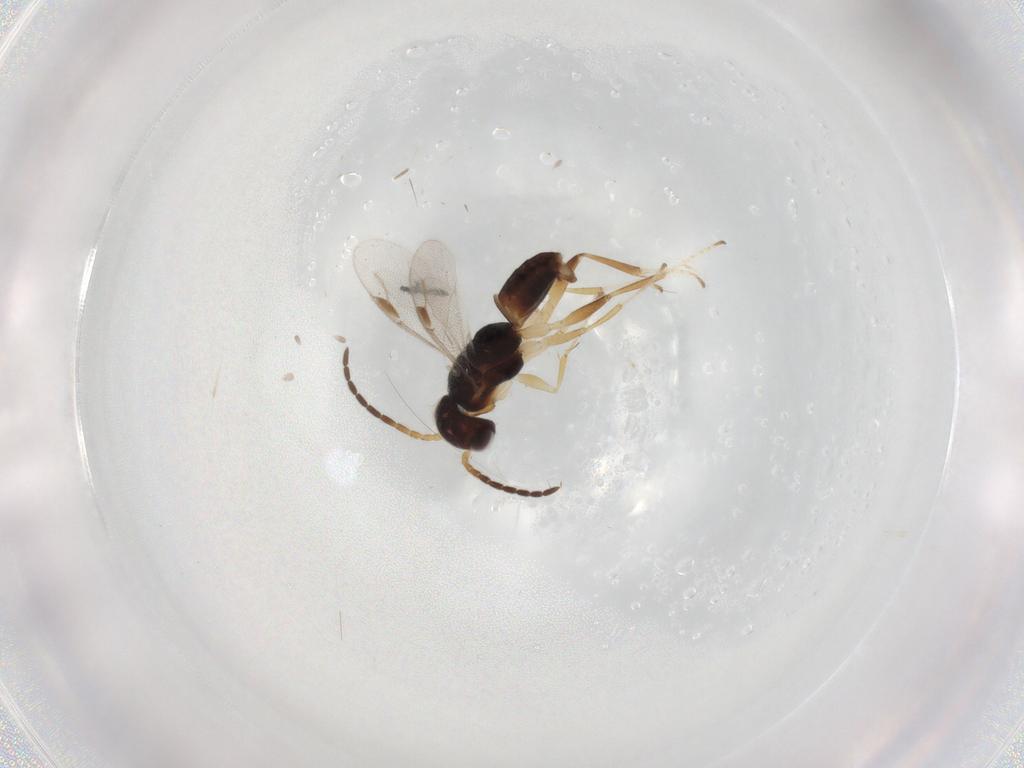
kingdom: Animalia
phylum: Arthropoda
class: Insecta
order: Hymenoptera
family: Dryinidae
